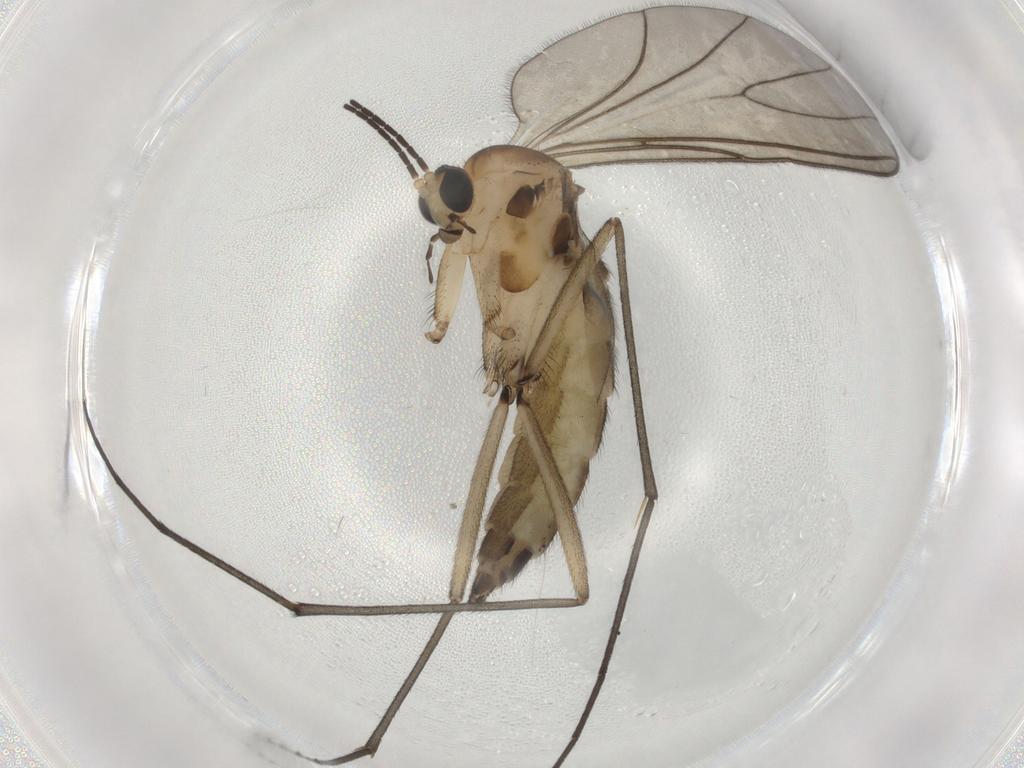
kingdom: Animalia
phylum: Arthropoda
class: Insecta
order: Diptera
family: Sciaridae
